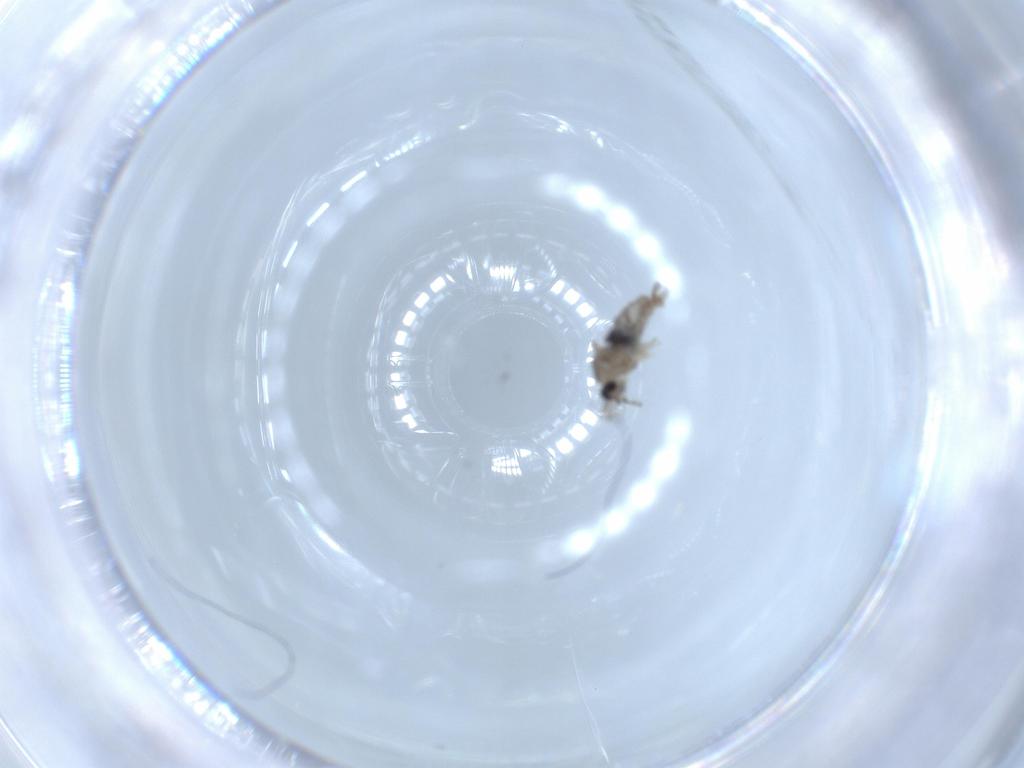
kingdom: Animalia
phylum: Arthropoda
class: Insecta
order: Diptera
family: Cecidomyiidae
